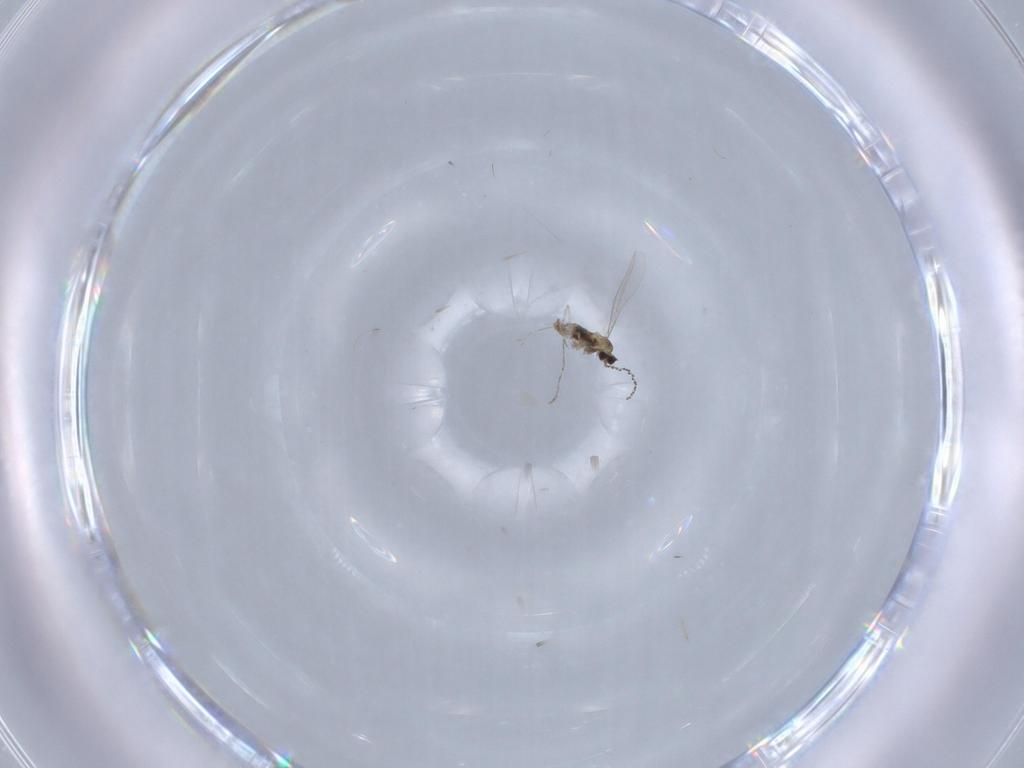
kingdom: Animalia
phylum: Arthropoda
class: Insecta
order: Diptera
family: Cecidomyiidae
